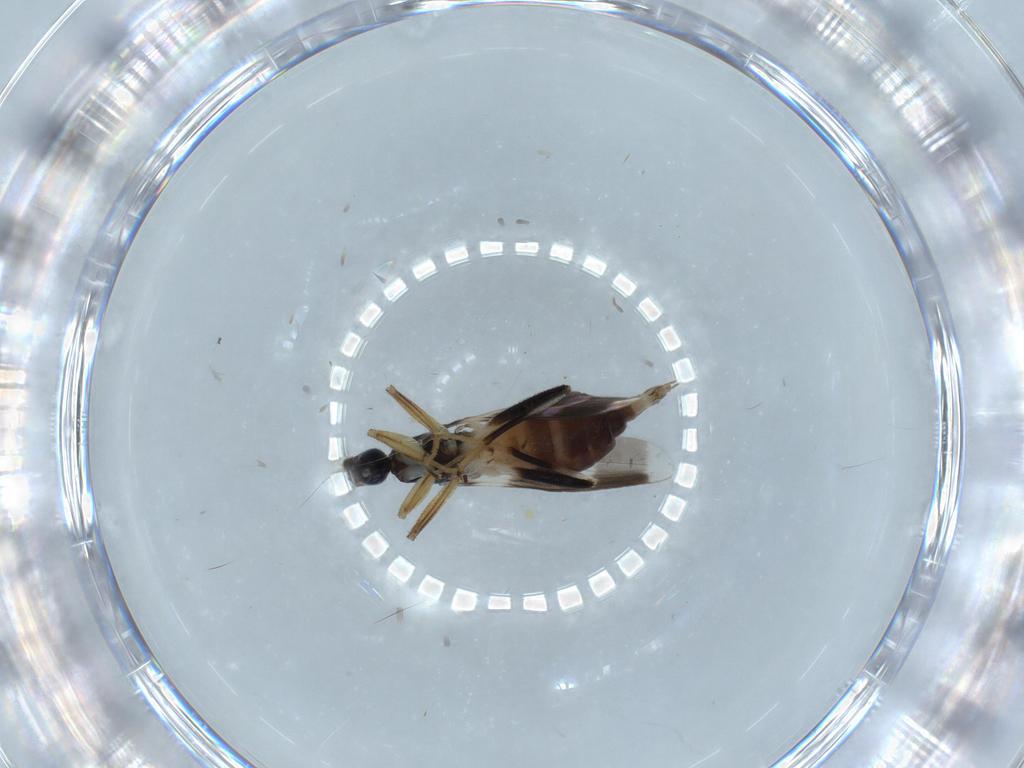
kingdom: Animalia
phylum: Arthropoda
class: Insecta
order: Diptera
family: Hybotidae
